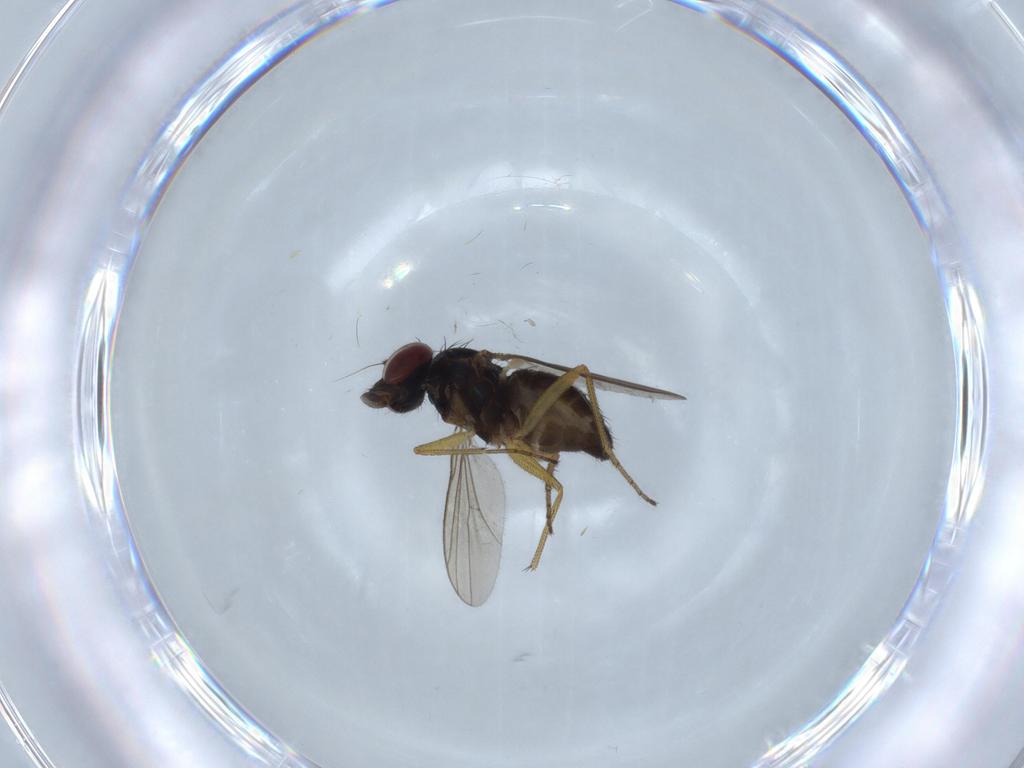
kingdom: Animalia
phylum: Arthropoda
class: Insecta
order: Diptera
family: Dolichopodidae
